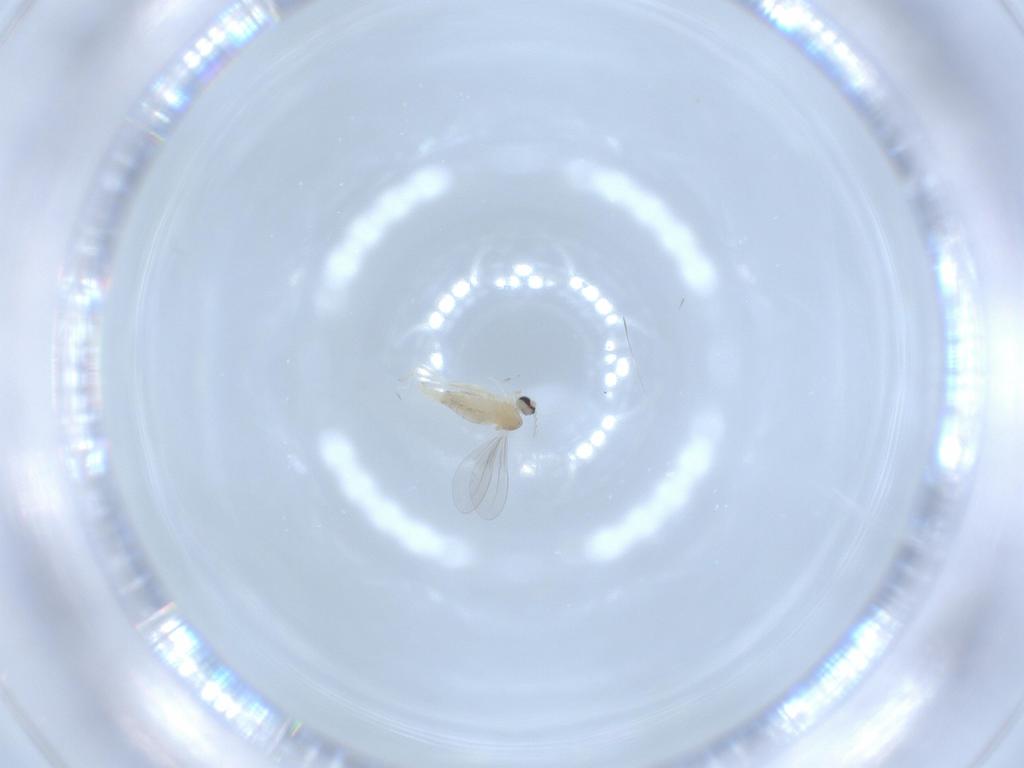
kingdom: Animalia
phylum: Arthropoda
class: Insecta
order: Diptera
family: Cecidomyiidae
